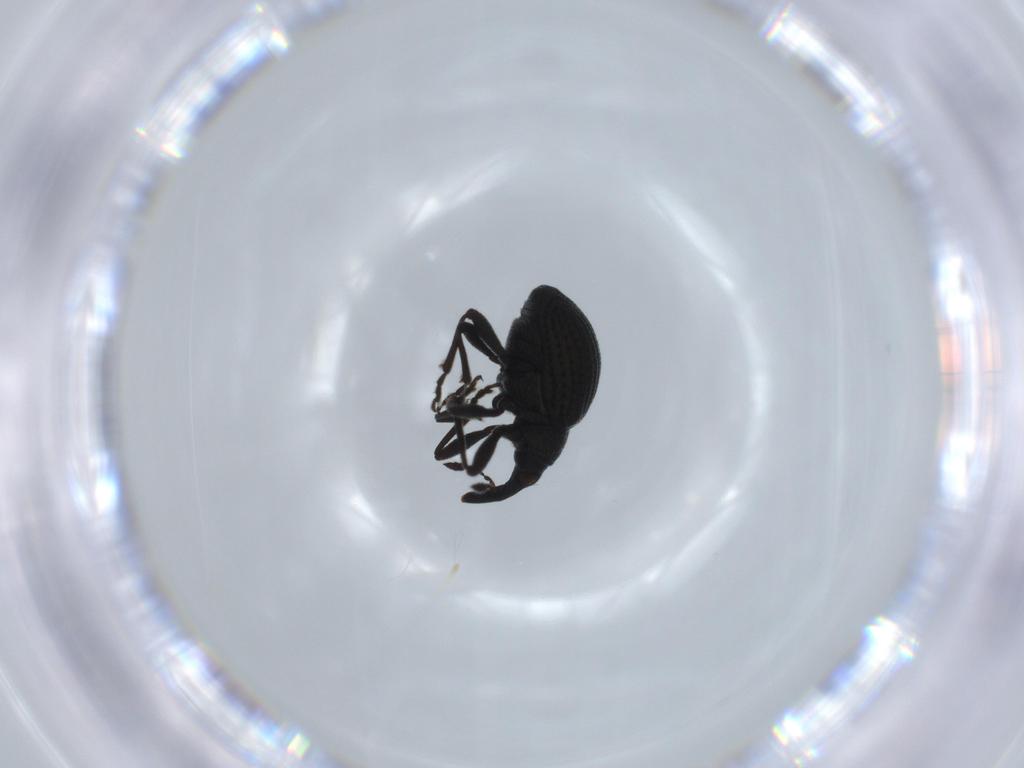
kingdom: Animalia
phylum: Arthropoda
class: Insecta
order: Coleoptera
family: Brentidae
